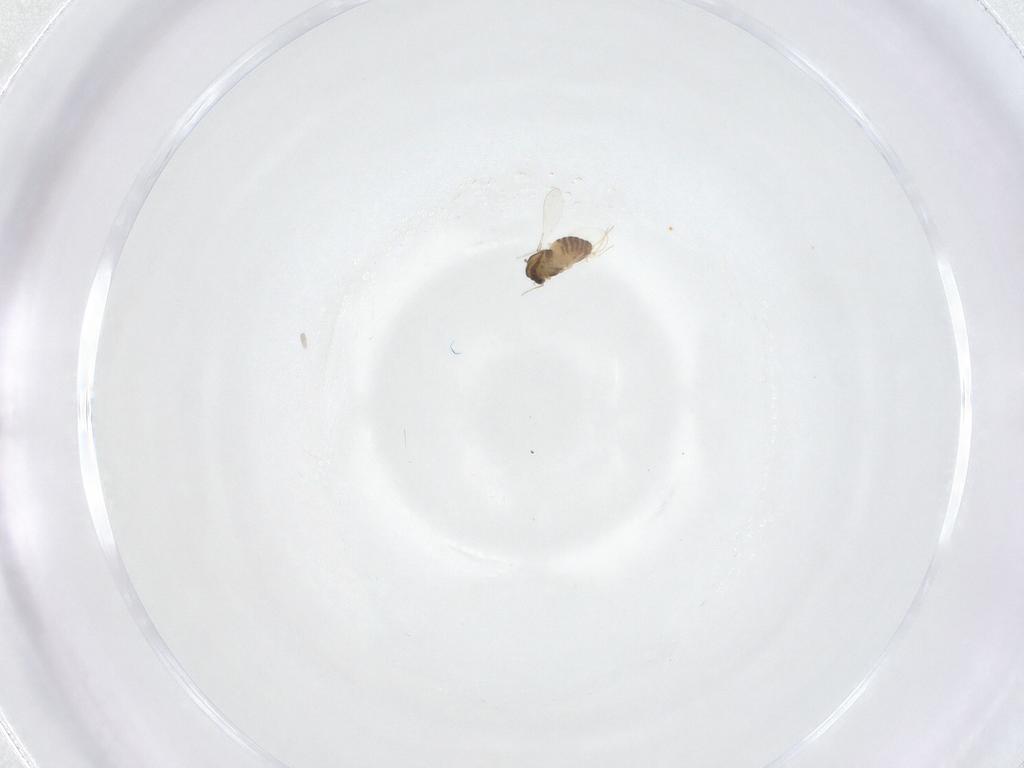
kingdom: Animalia
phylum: Arthropoda
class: Insecta
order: Diptera
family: Chironomidae
